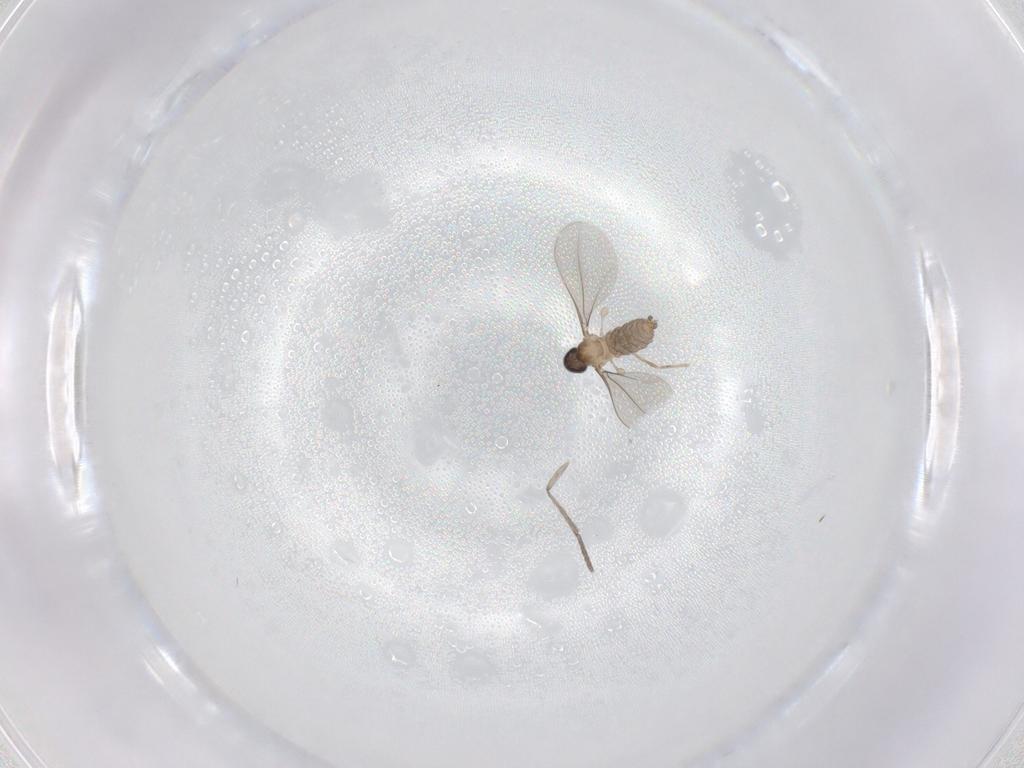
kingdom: Animalia
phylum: Arthropoda
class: Insecta
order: Diptera
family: Cecidomyiidae
